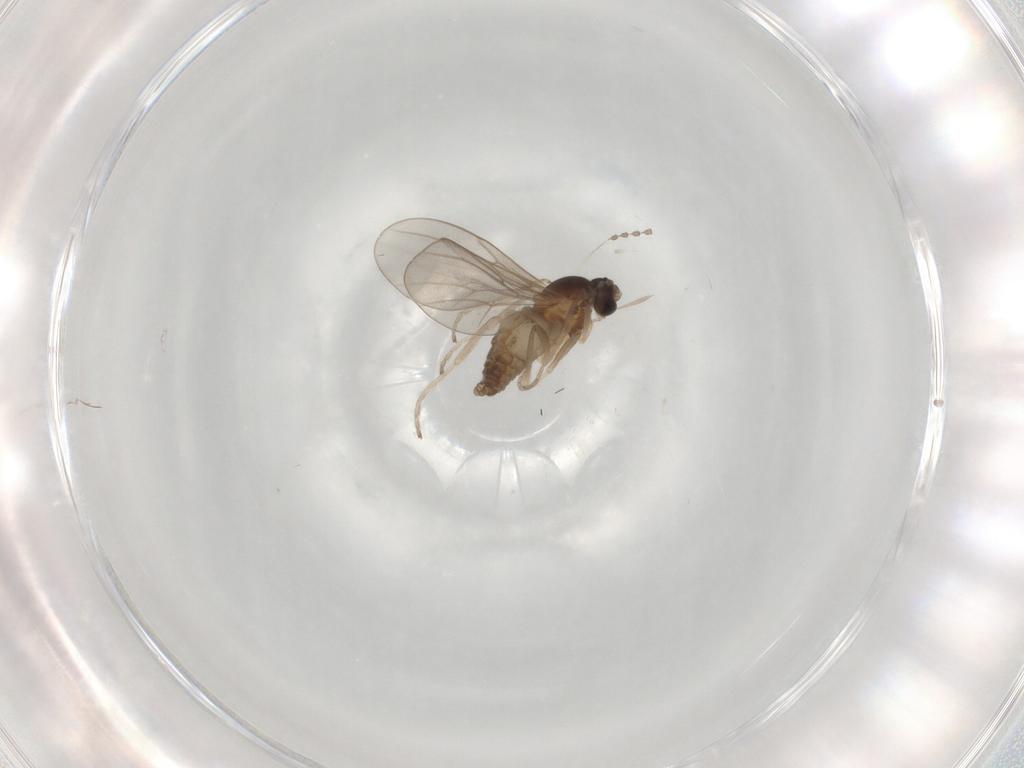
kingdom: Animalia
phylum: Arthropoda
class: Insecta
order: Diptera
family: Cecidomyiidae
